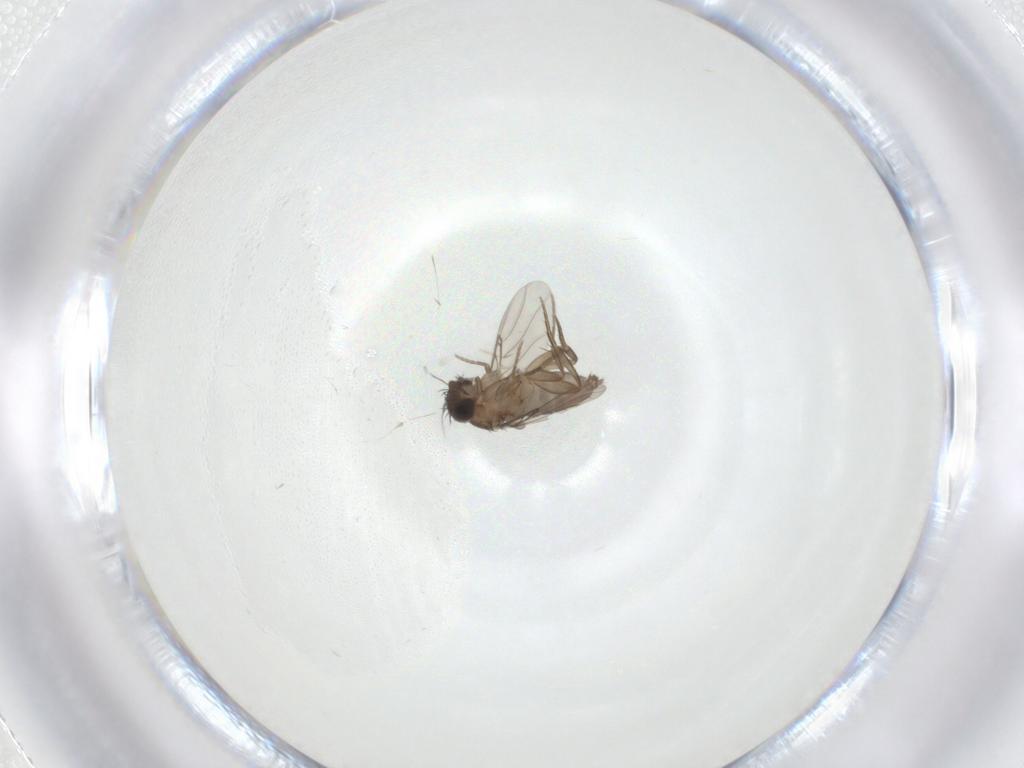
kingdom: Animalia
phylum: Arthropoda
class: Insecta
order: Diptera
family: Phoridae
